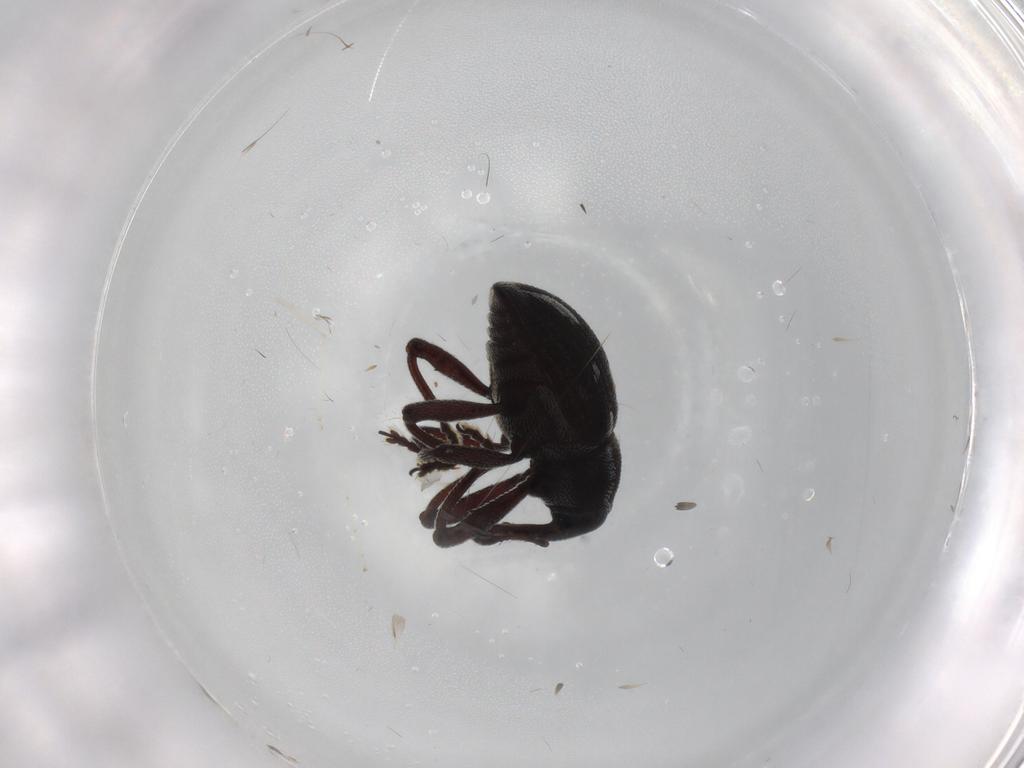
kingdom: Animalia
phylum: Arthropoda
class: Insecta
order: Coleoptera
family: Curculionidae
